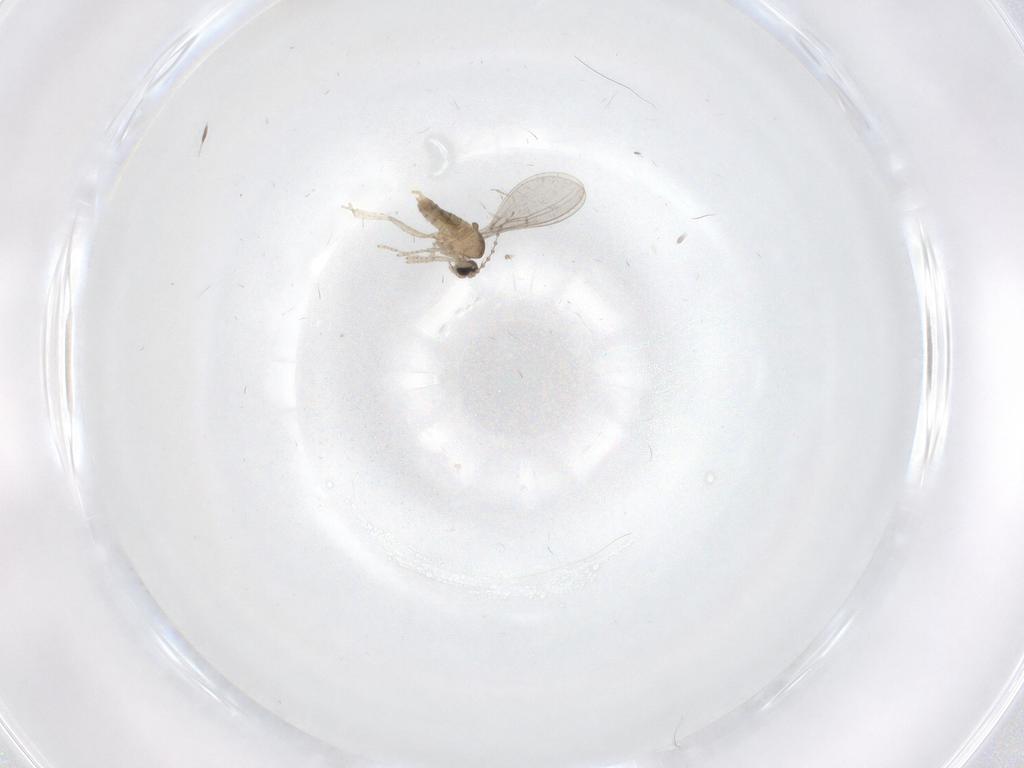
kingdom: Animalia
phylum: Arthropoda
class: Insecta
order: Diptera
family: Cecidomyiidae
